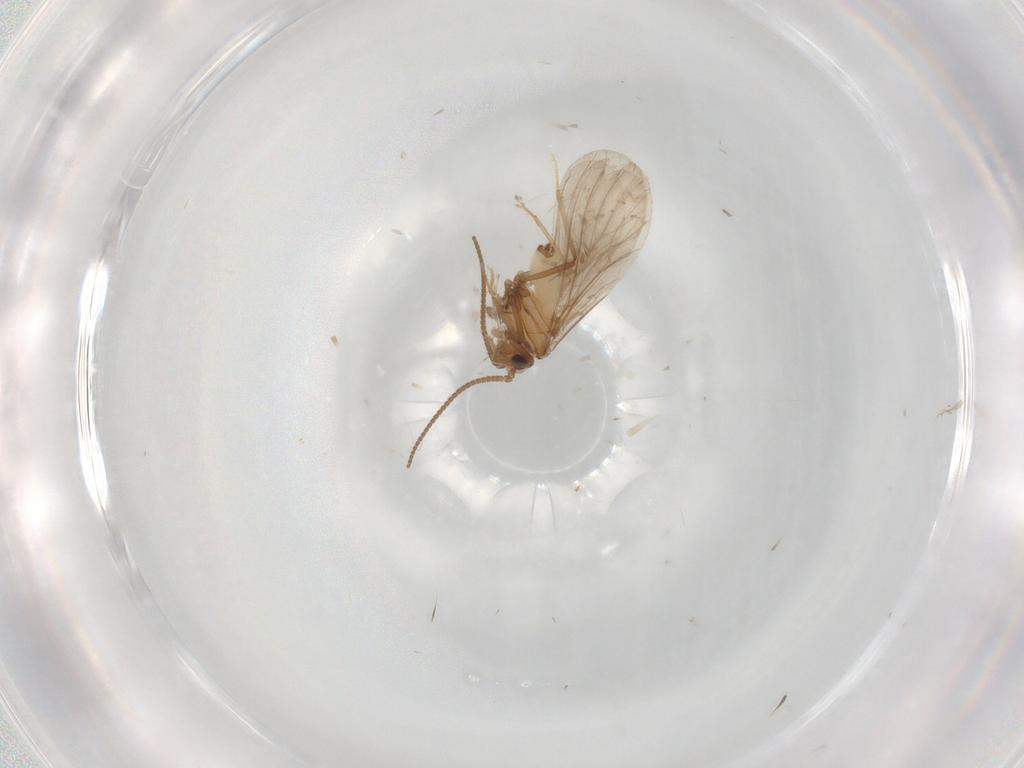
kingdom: Animalia
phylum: Arthropoda
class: Insecta
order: Neuroptera
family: Coniopterygidae
